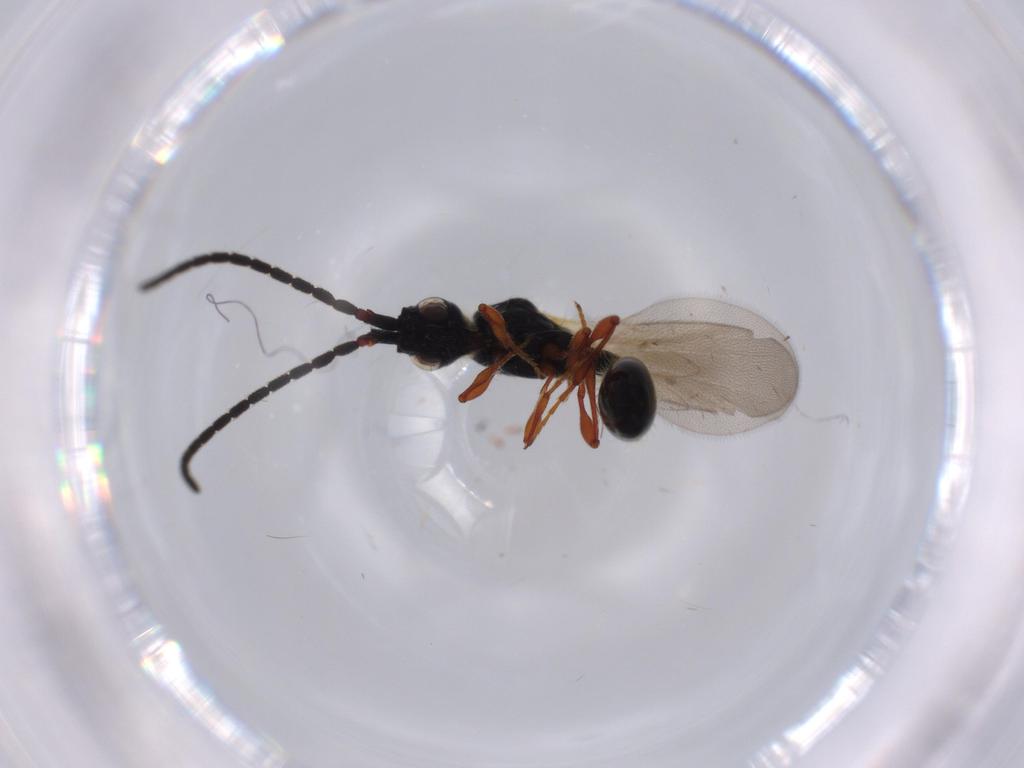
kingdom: Animalia
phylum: Arthropoda
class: Insecta
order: Hymenoptera
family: Diapriidae
